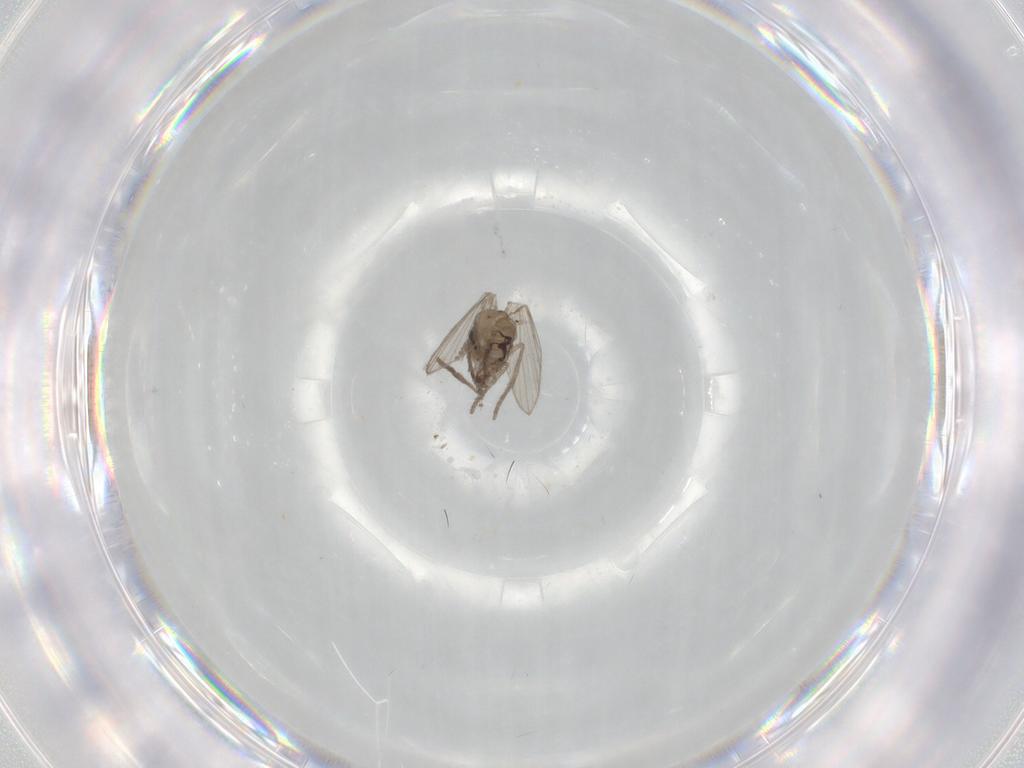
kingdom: Animalia
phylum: Arthropoda
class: Insecta
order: Diptera
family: Psychodidae
